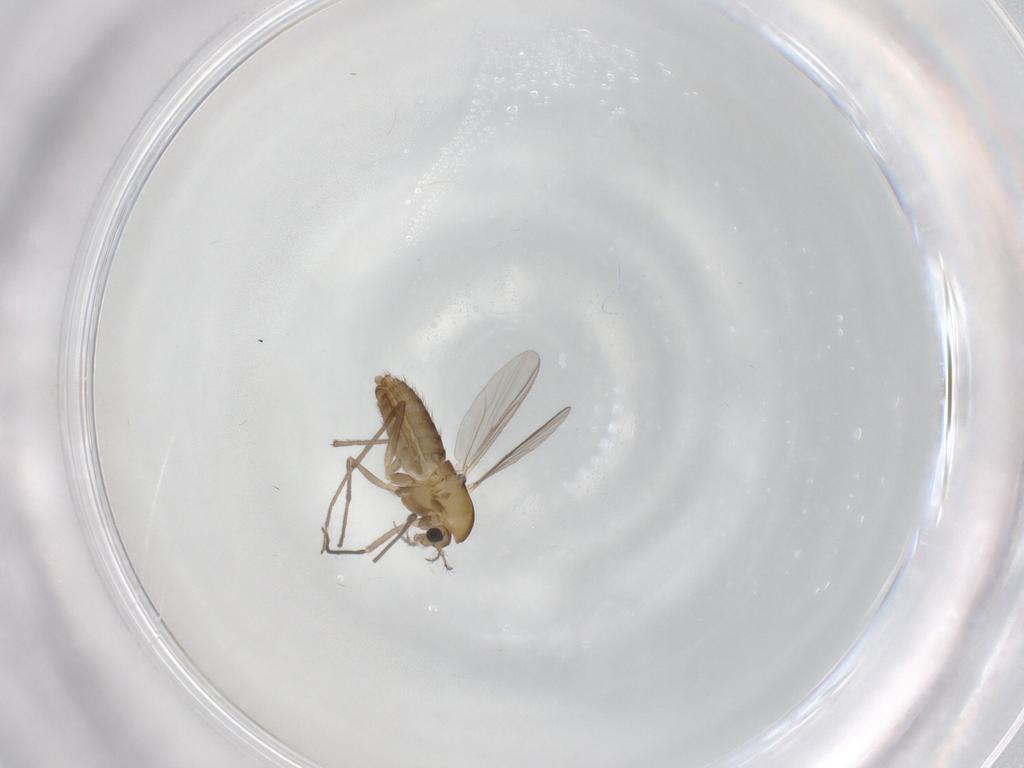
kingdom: Animalia
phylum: Arthropoda
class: Insecta
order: Diptera
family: Chironomidae
